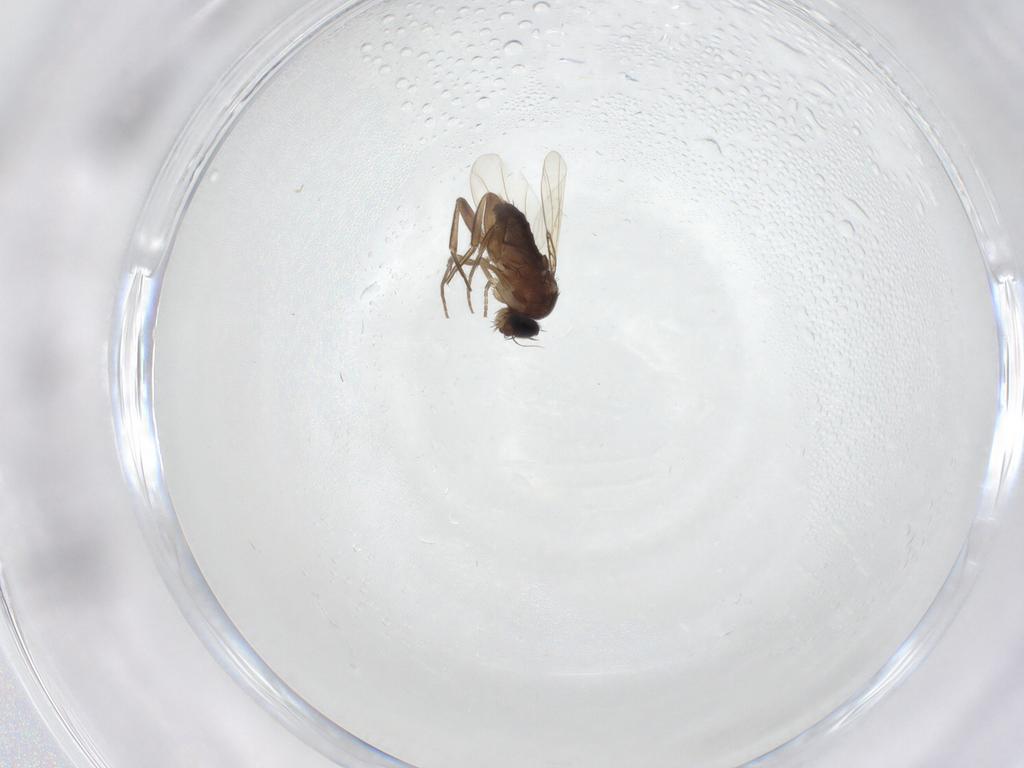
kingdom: Animalia
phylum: Arthropoda
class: Insecta
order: Diptera
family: Phoridae
